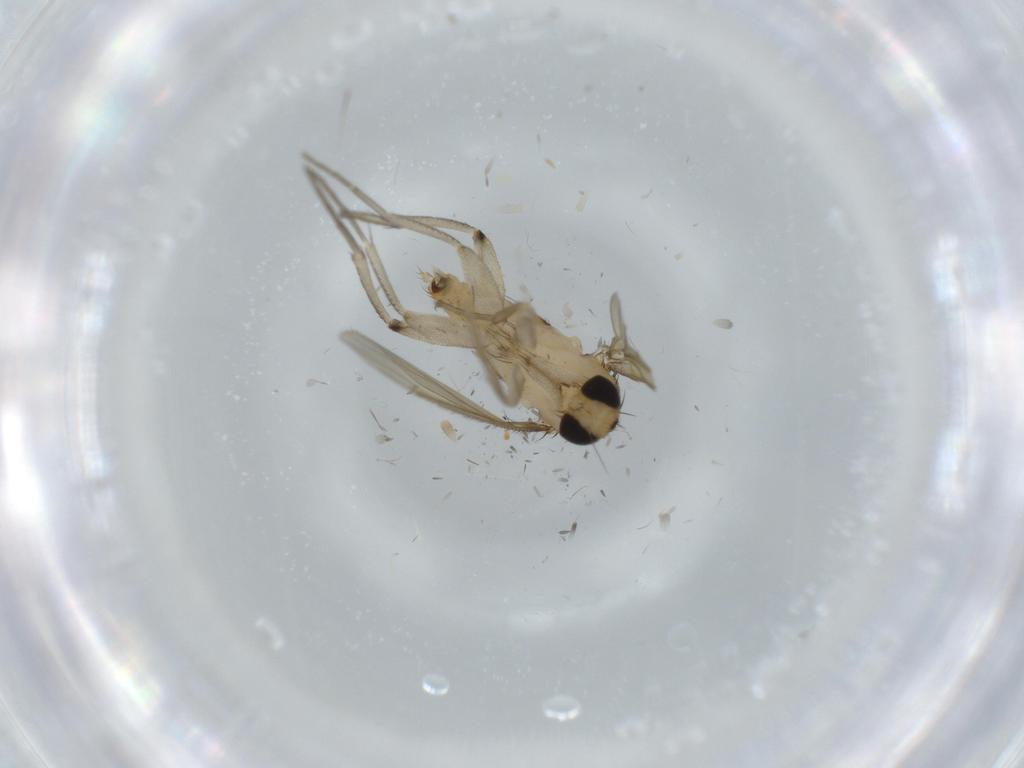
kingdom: Animalia
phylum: Arthropoda
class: Insecta
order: Diptera
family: Phoridae
